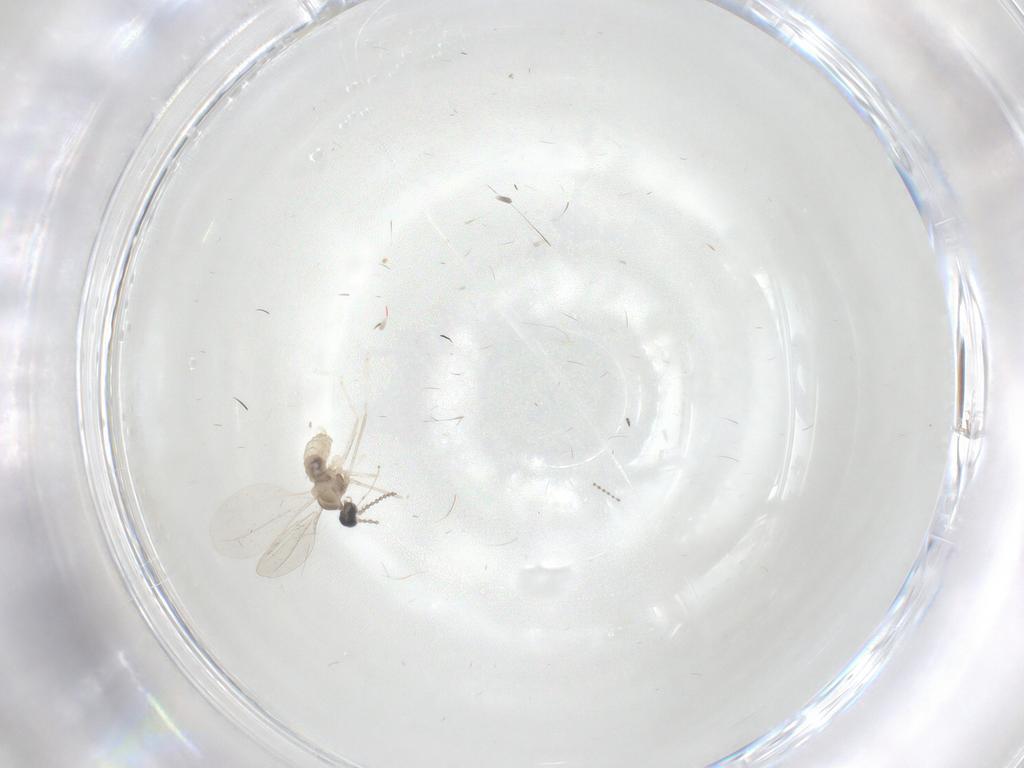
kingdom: Animalia
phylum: Arthropoda
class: Insecta
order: Diptera
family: Cecidomyiidae
